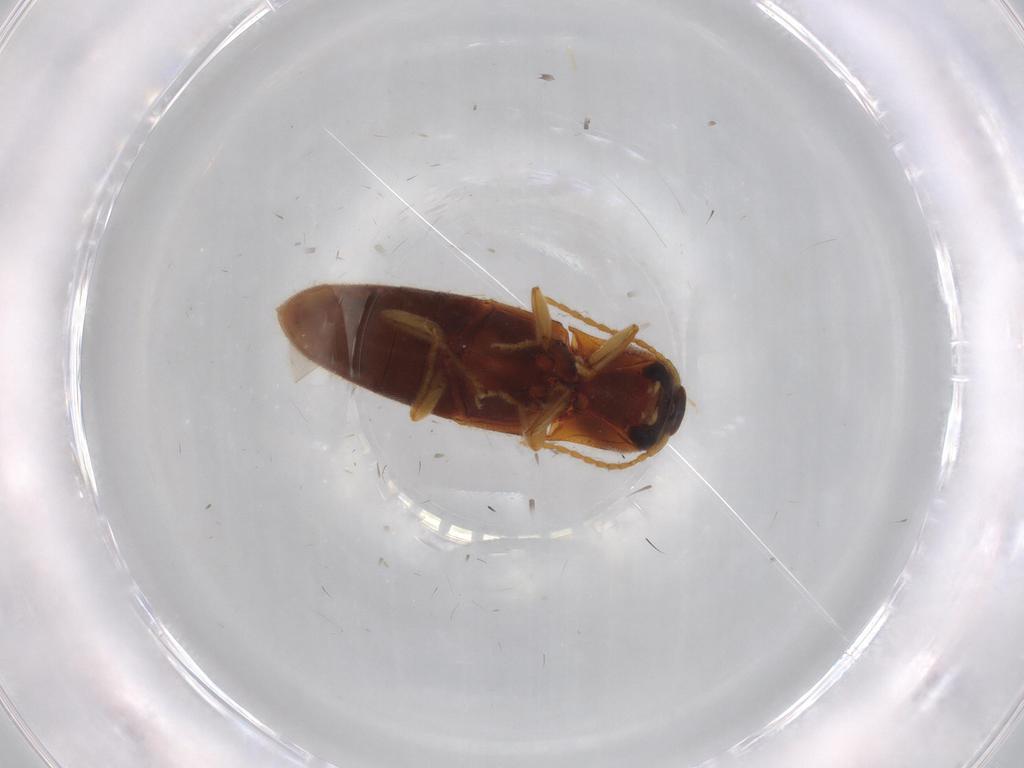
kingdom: Animalia
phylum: Arthropoda
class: Insecta
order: Coleoptera
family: Elateridae
